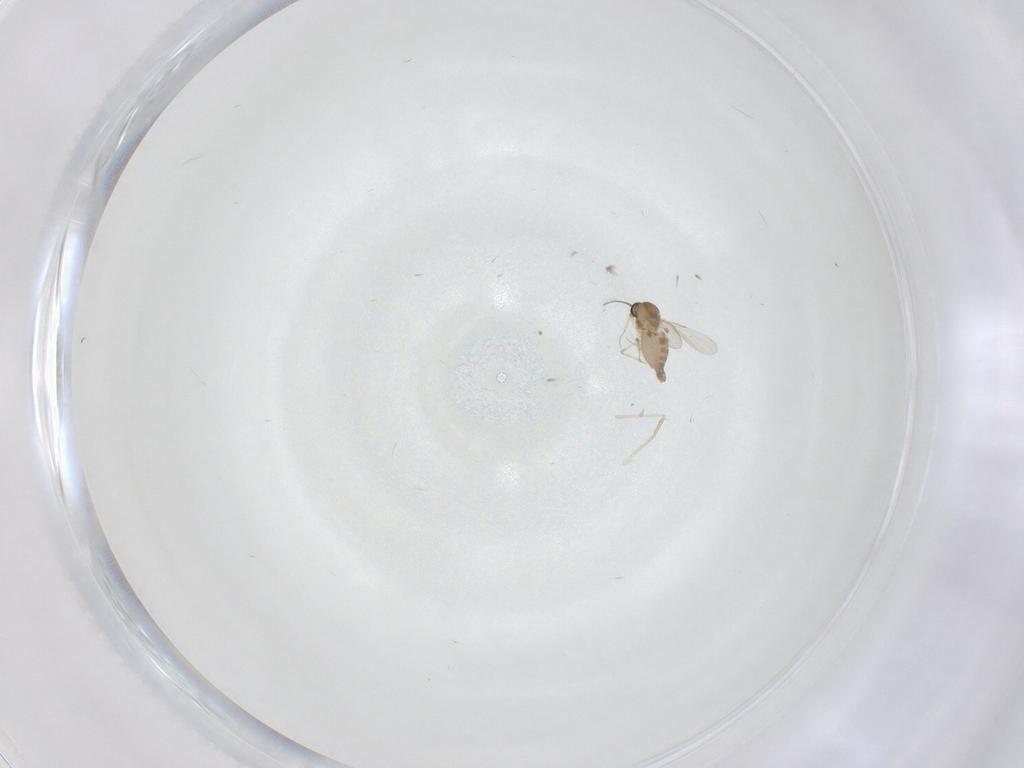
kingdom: Animalia
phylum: Arthropoda
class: Insecta
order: Diptera
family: Ceratopogonidae
